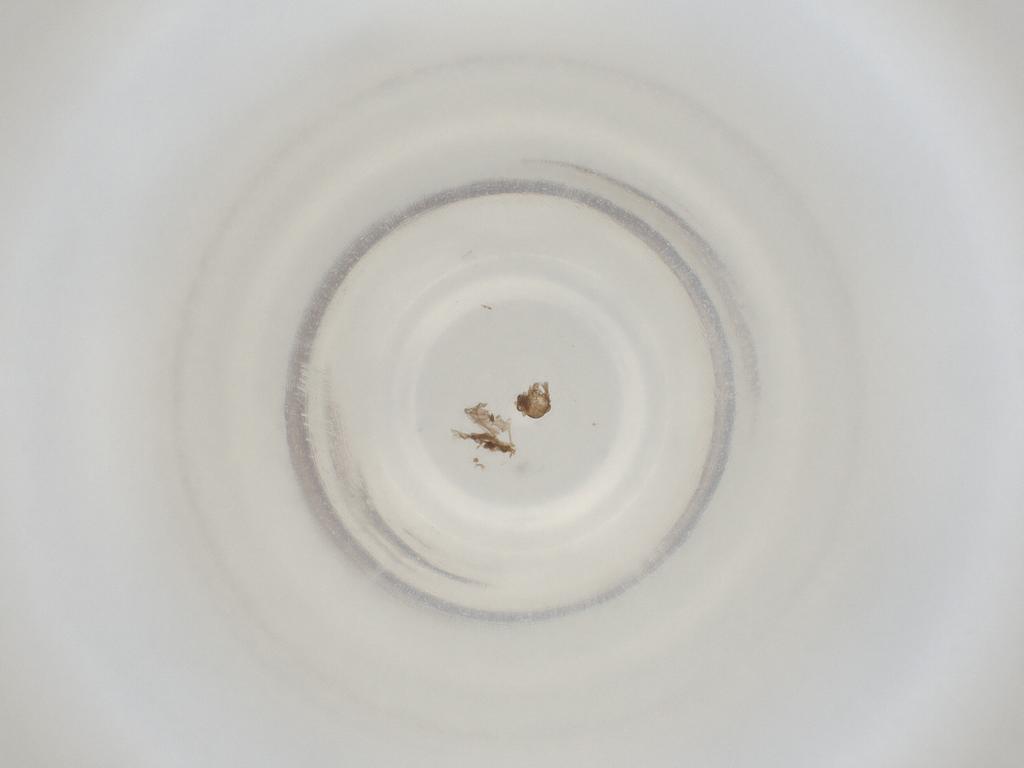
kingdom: Animalia
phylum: Arthropoda
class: Insecta
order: Diptera
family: Cecidomyiidae
